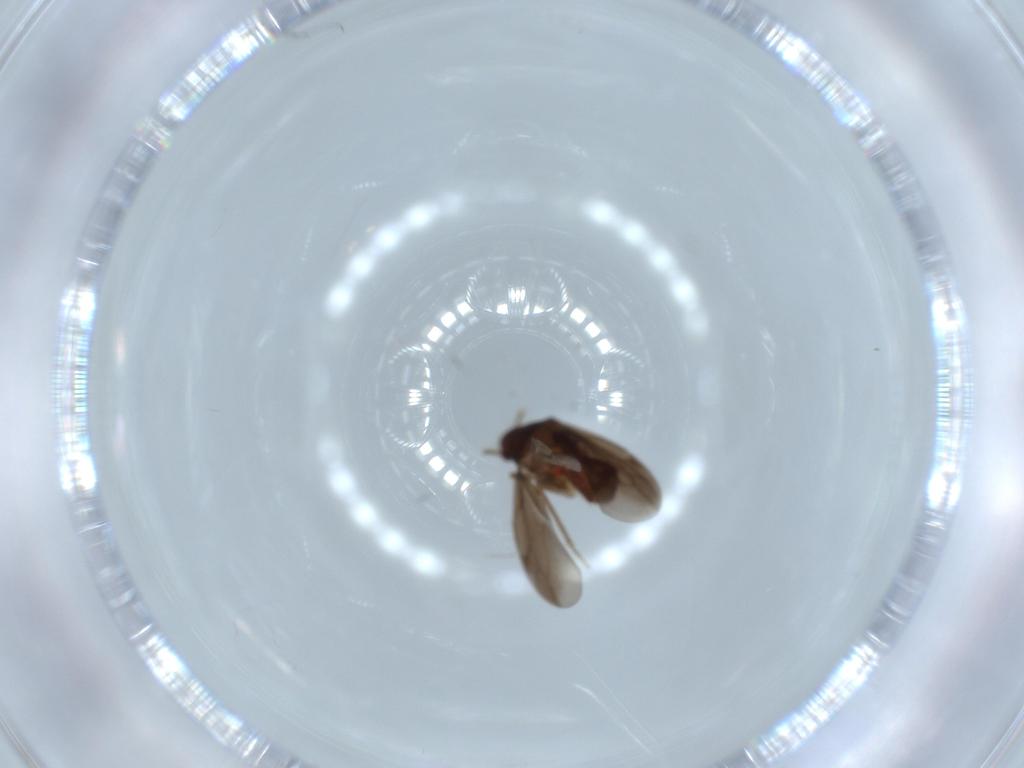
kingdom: Animalia
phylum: Arthropoda
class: Insecta
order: Hemiptera
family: Ceratocombidae
